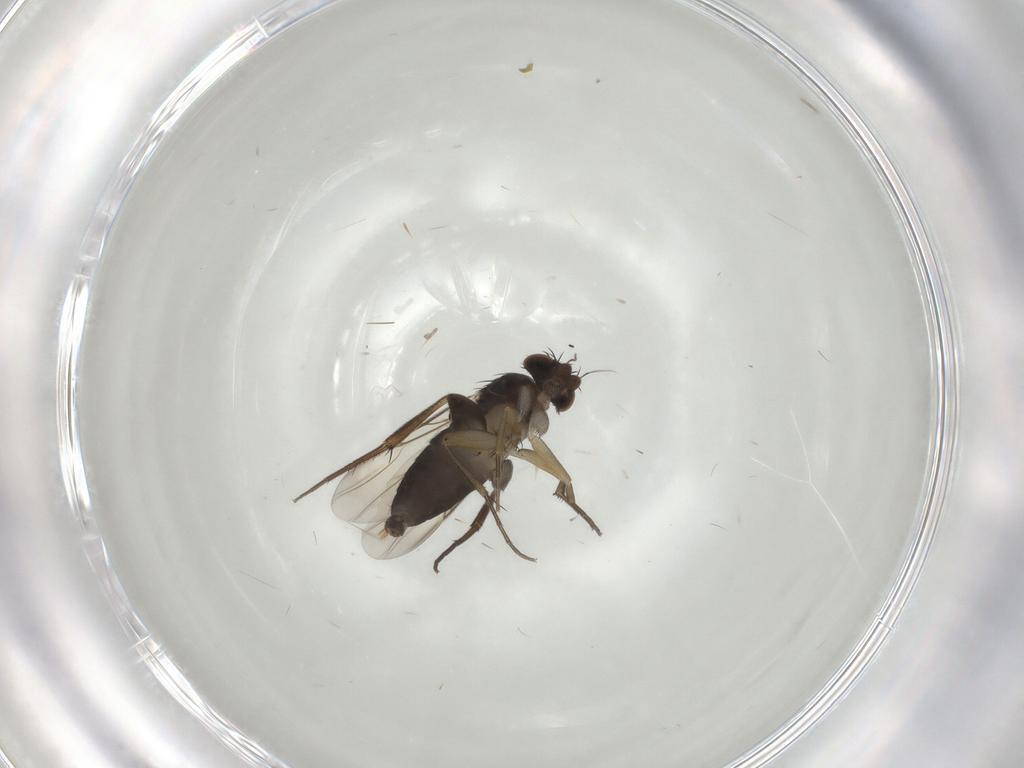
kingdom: Animalia
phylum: Arthropoda
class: Insecta
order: Diptera
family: Phoridae
